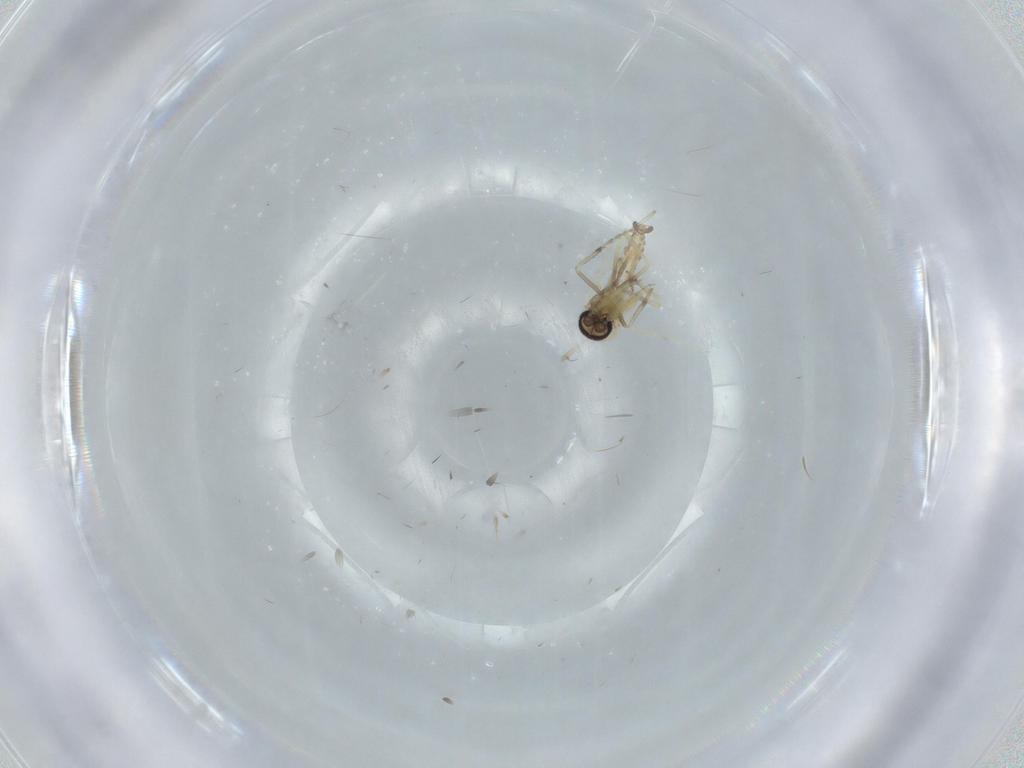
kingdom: Animalia
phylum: Arthropoda
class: Insecta
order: Diptera
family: Ceratopogonidae
